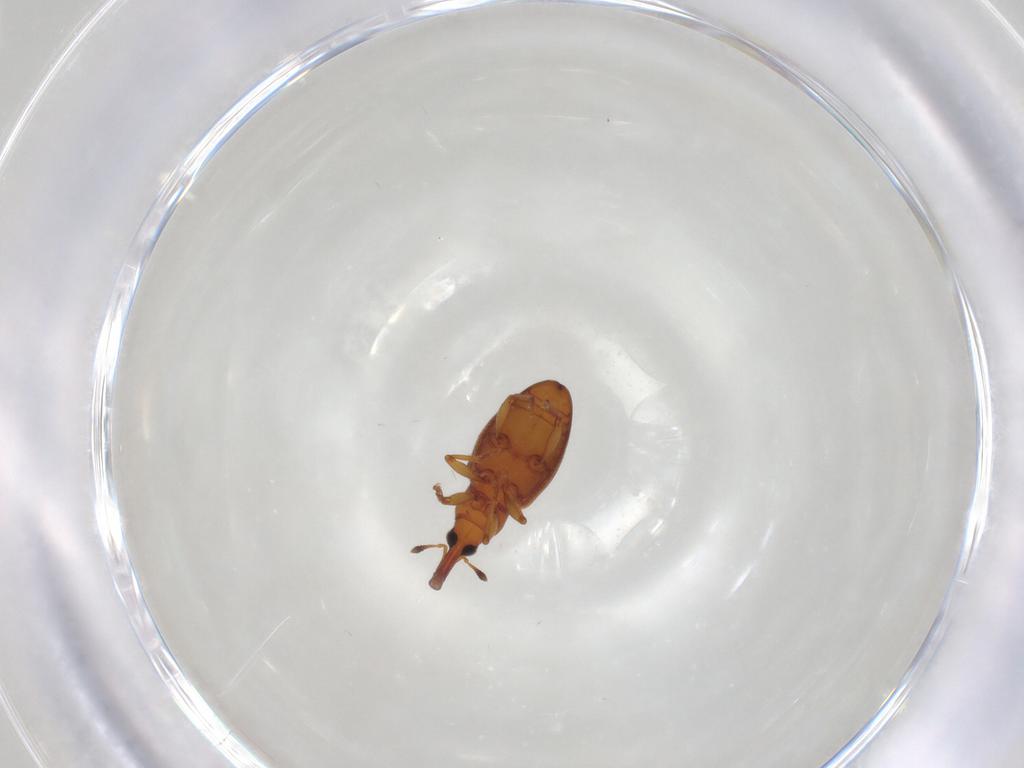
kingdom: Animalia
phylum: Arthropoda
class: Insecta
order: Coleoptera
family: Curculionidae
